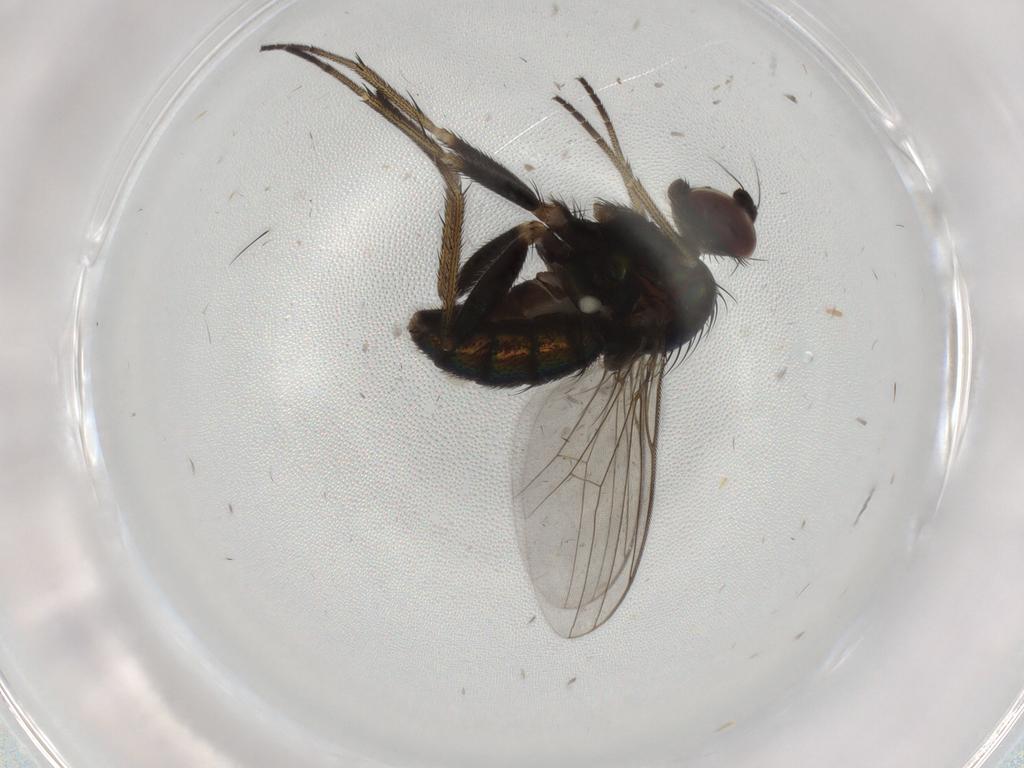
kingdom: Animalia
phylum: Arthropoda
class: Insecta
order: Diptera
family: Dolichopodidae
